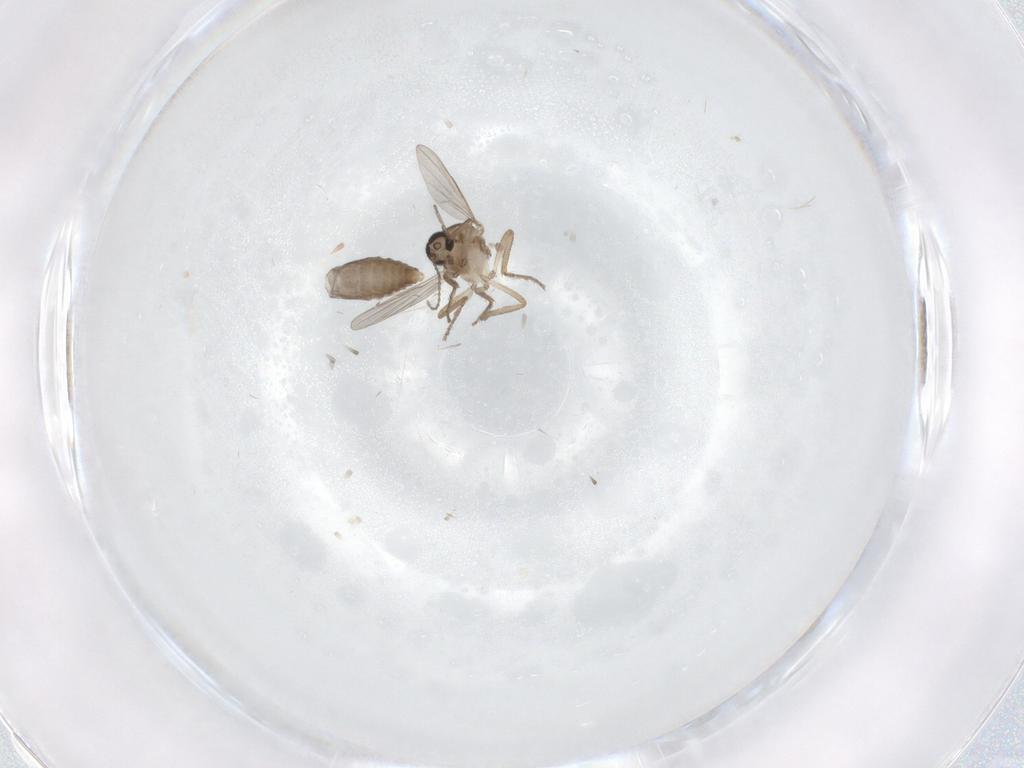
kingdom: Animalia
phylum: Arthropoda
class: Insecta
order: Diptera
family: Ceratopogonidae
